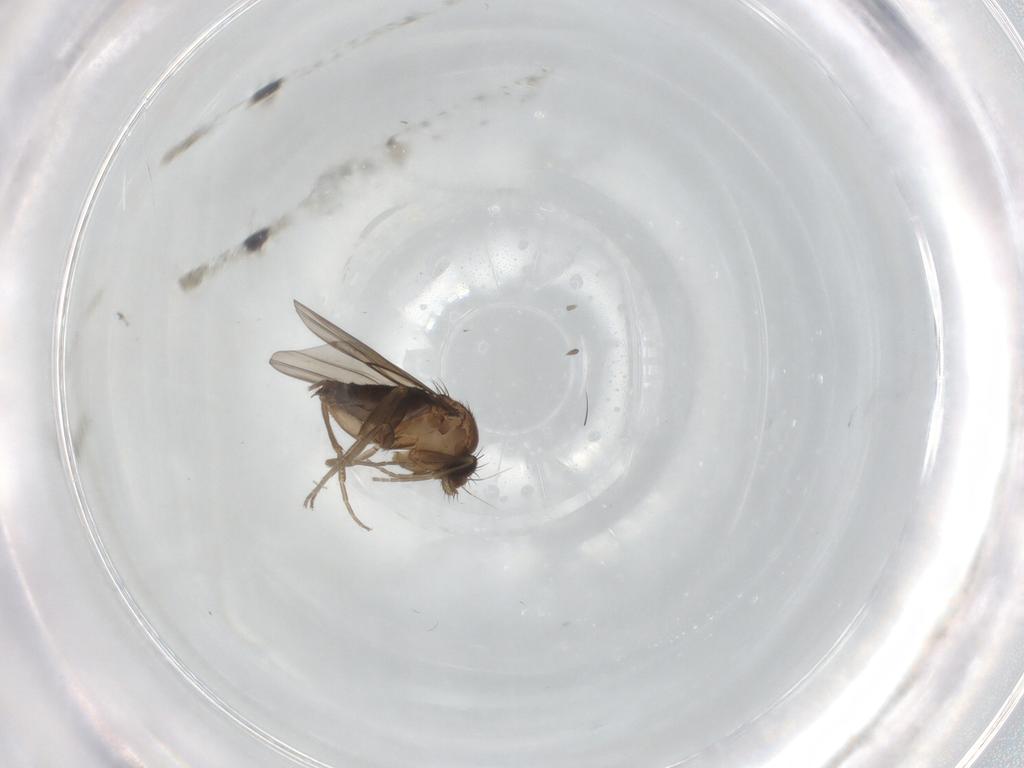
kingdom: Animalia
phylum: Arthropoda
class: Insecta
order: Diptera
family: Phoridae
